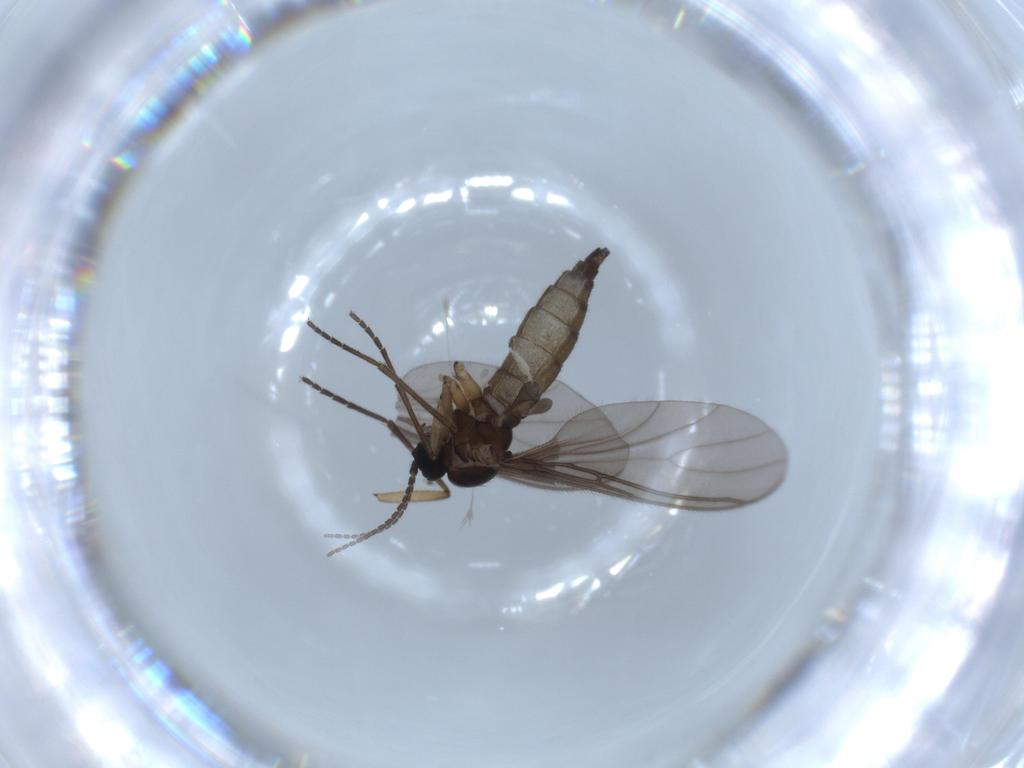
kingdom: Animalia
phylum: Arthropoda
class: Insecta
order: Diptera
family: Sciaridae
